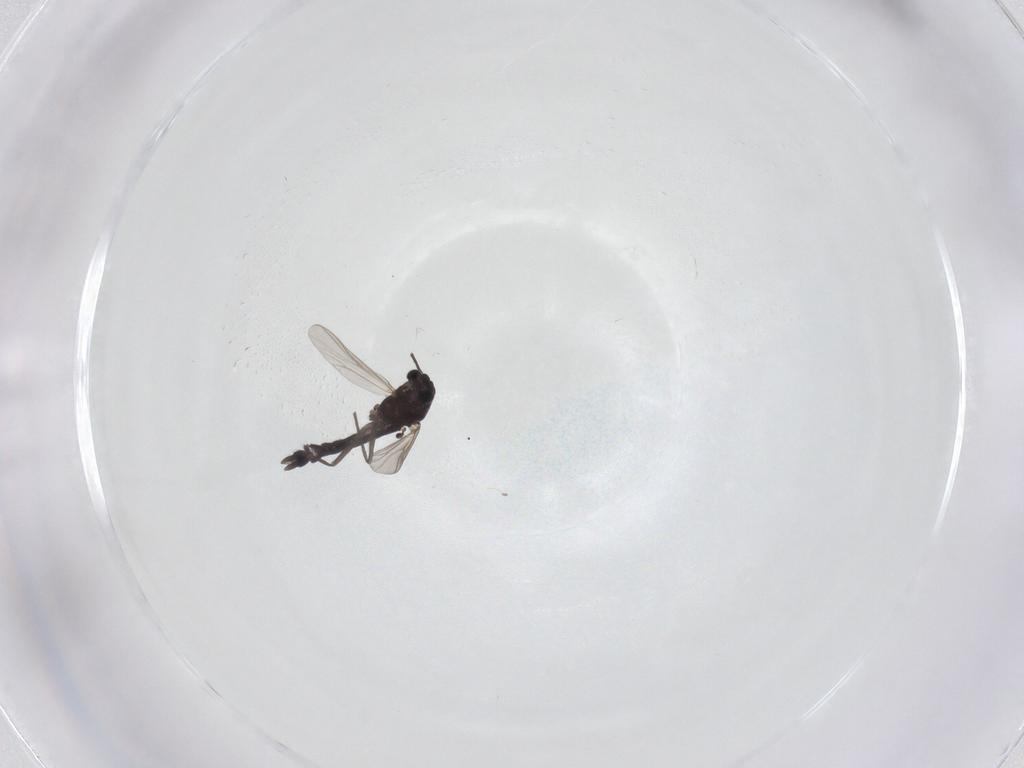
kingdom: Animalia
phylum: Arthropoda
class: Insecta
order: Diptera
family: Chironomidae
